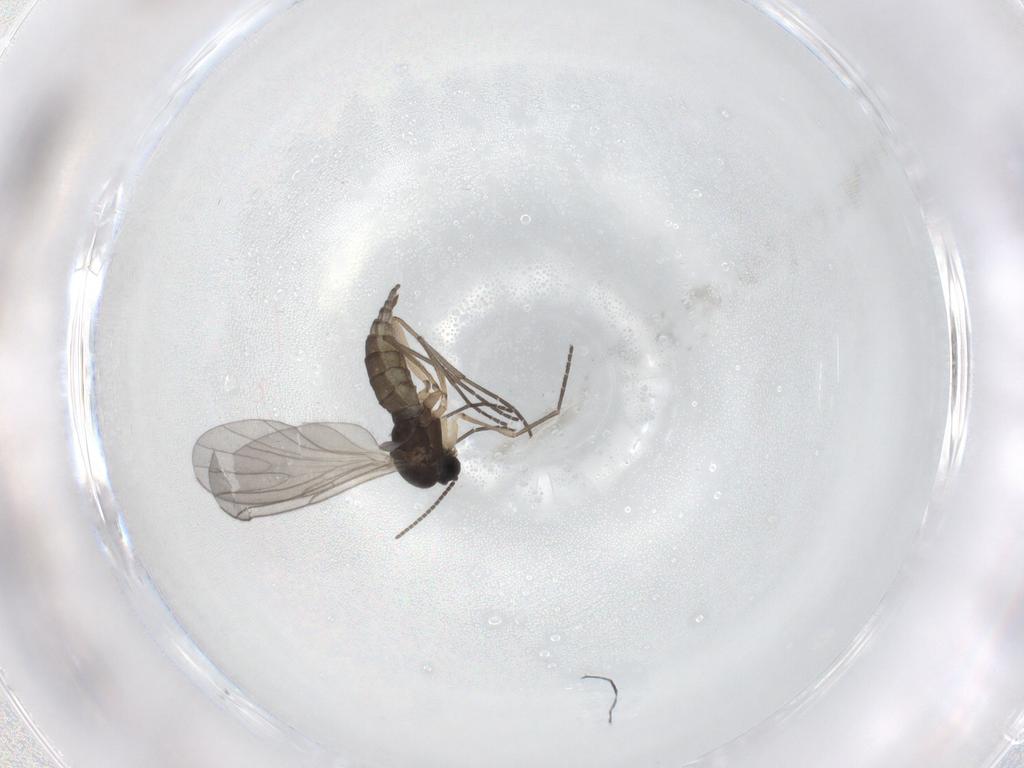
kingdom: Animalia
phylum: Arthropoda
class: Insecta
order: Diptera
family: Sciaridae
